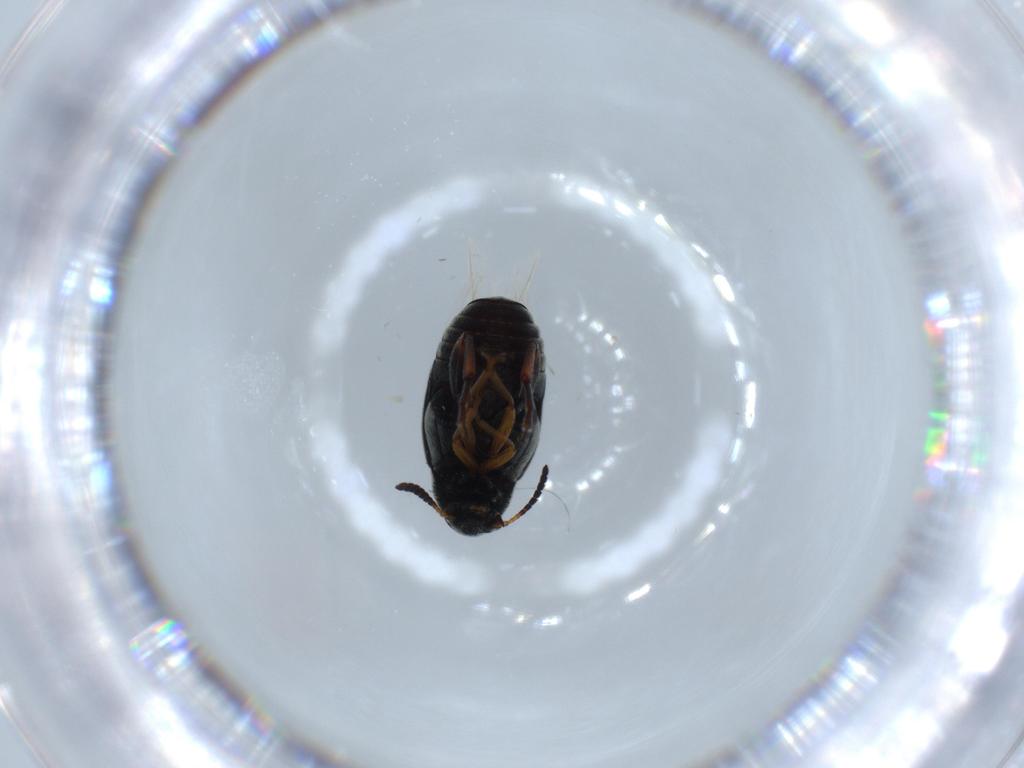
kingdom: Animalia
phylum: Arthropoda
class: Insecta
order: Coleoptera
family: Chrysomelidae
